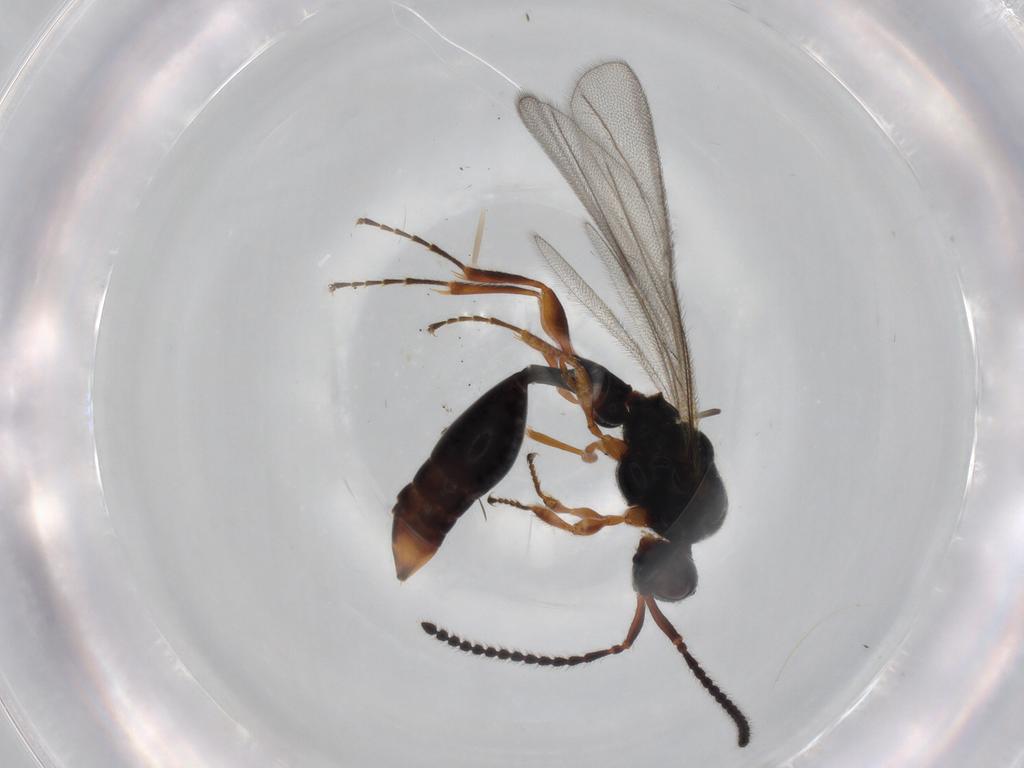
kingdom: Animalia
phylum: Arthropoda
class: Insecta
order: Hymenoptera
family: Diapriidae
